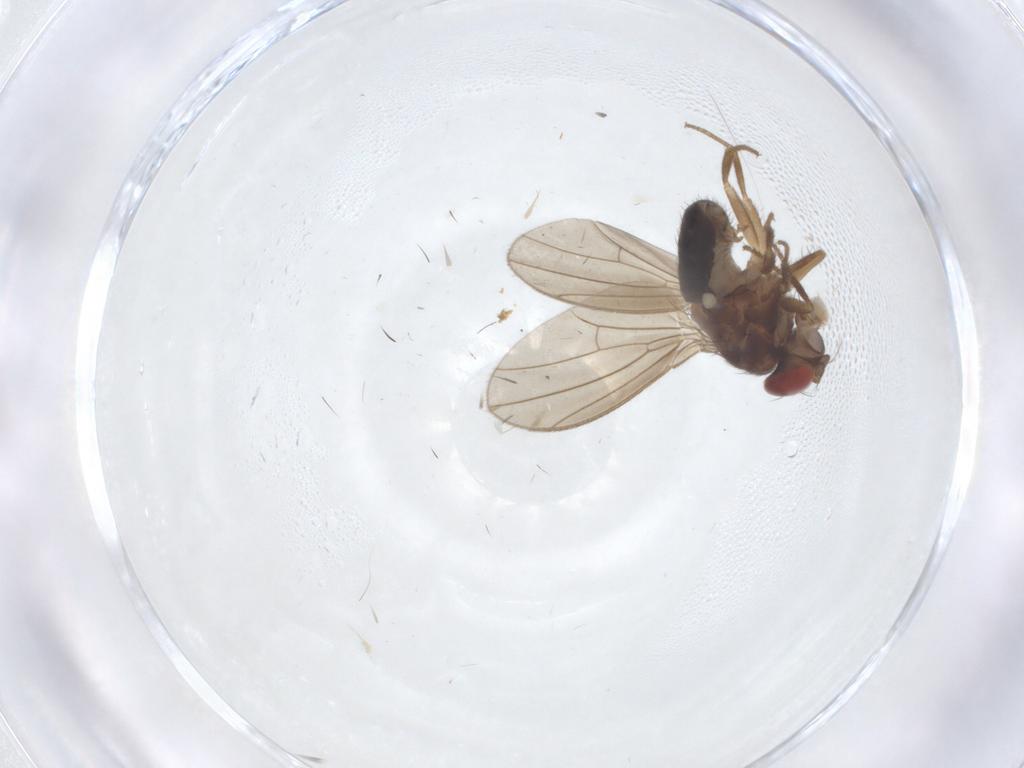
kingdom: Animalia
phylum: Arthropoda
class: Insecta
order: Diptera
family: Drosophilidae
